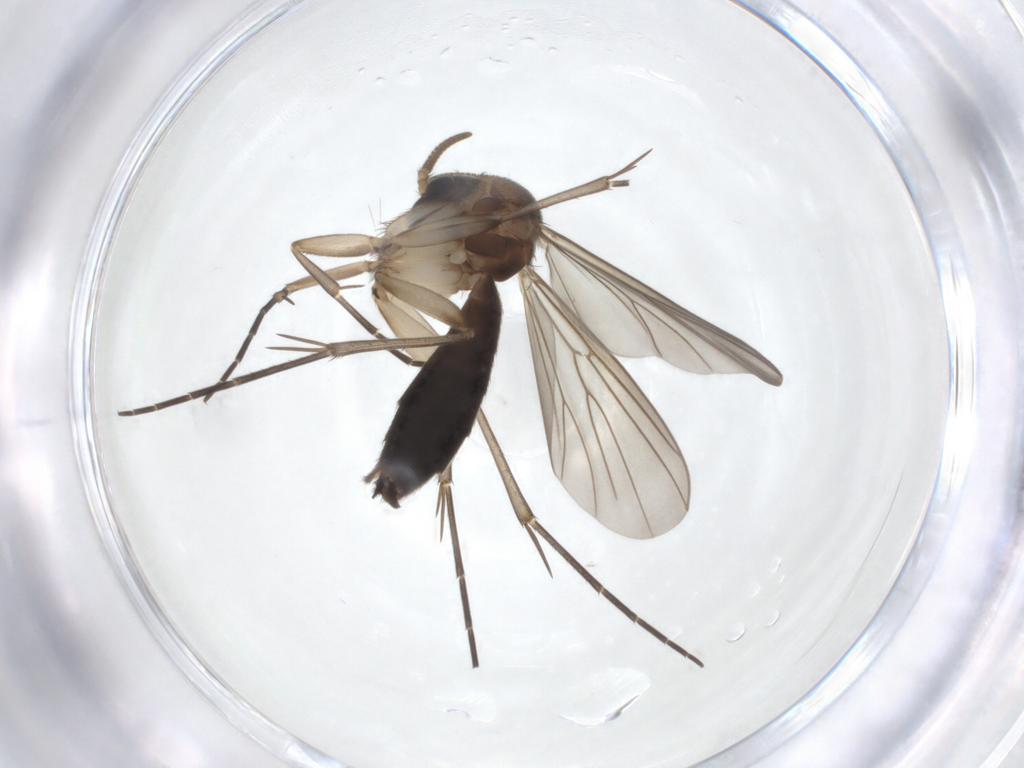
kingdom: Animalia
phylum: Arthropoda
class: Insecta
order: Diptera
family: Mycetophilidae
